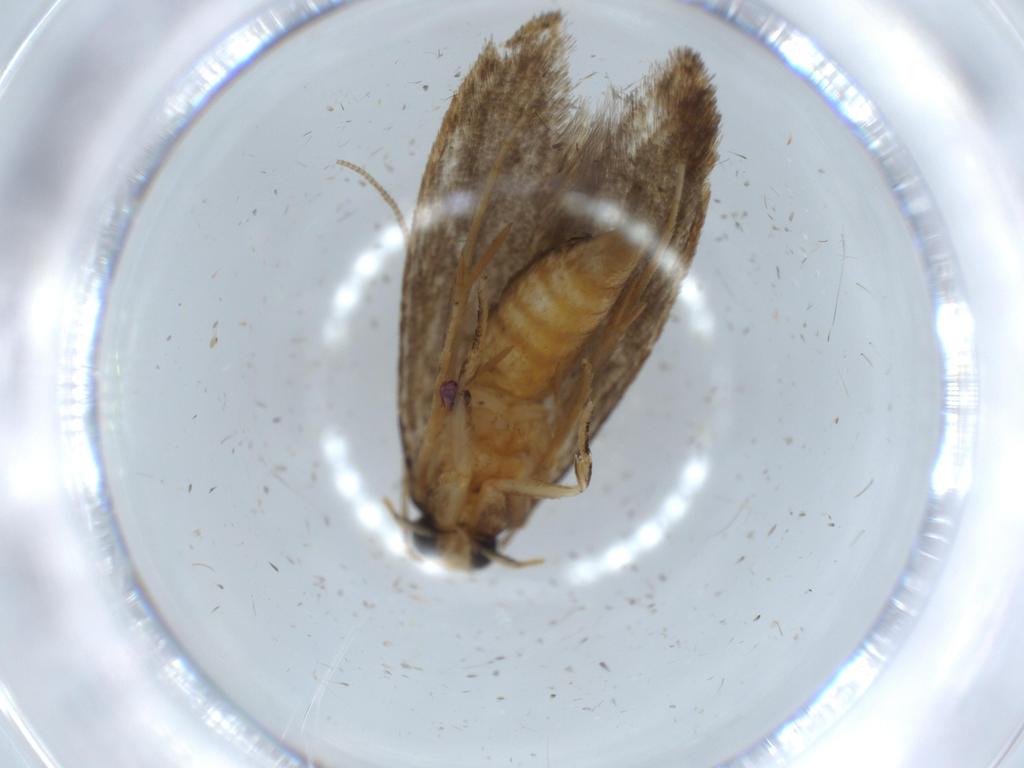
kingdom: Animalia
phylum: Arthropoda
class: Insecta
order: Lepidoptera
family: Tineidae
